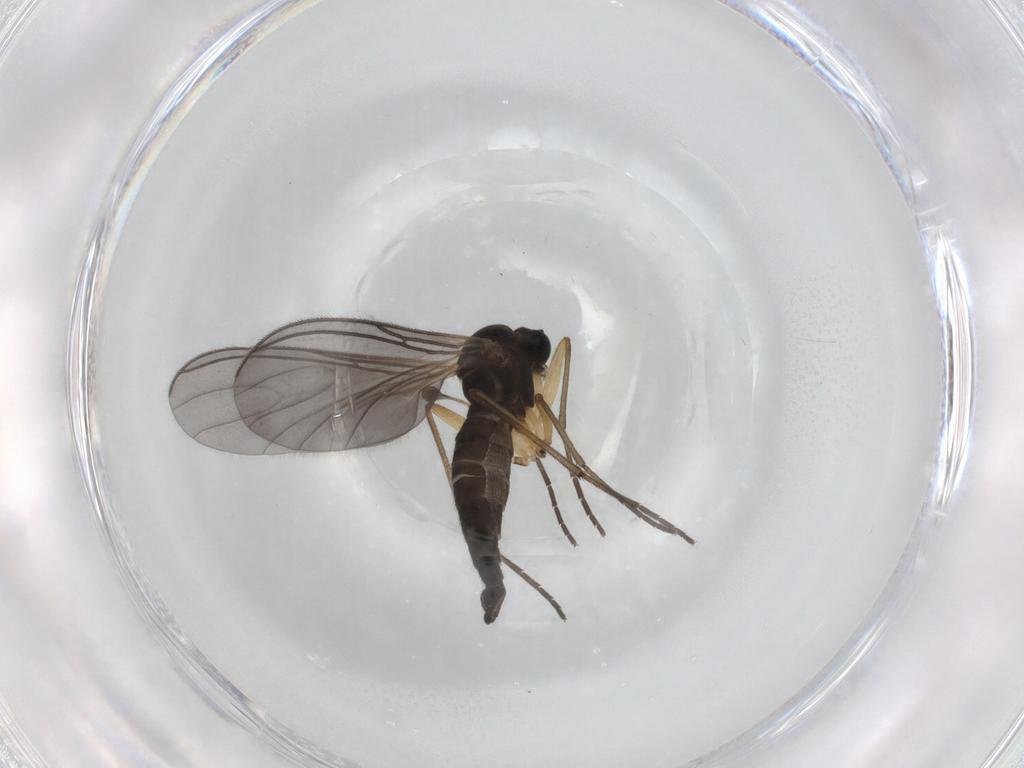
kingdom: Animalia
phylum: Arthropoda
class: Insecta
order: Diptera
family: Sciaridae
